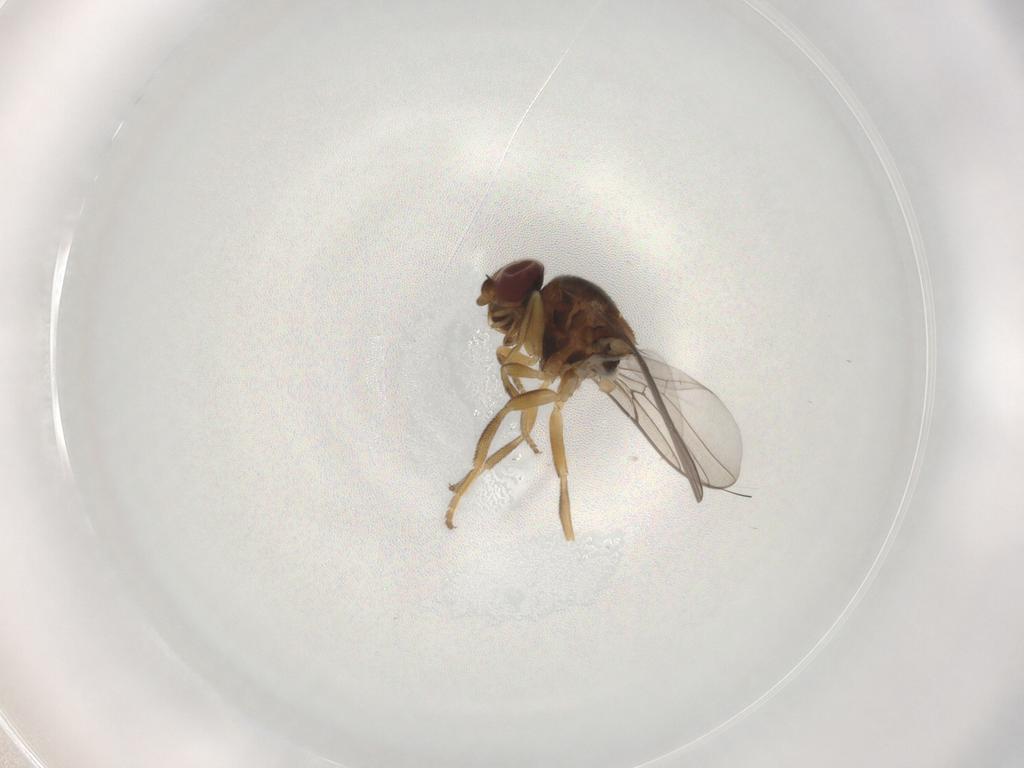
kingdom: Animalia
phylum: Arthropoda
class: Insecta
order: Diptera
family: Chloropidae
